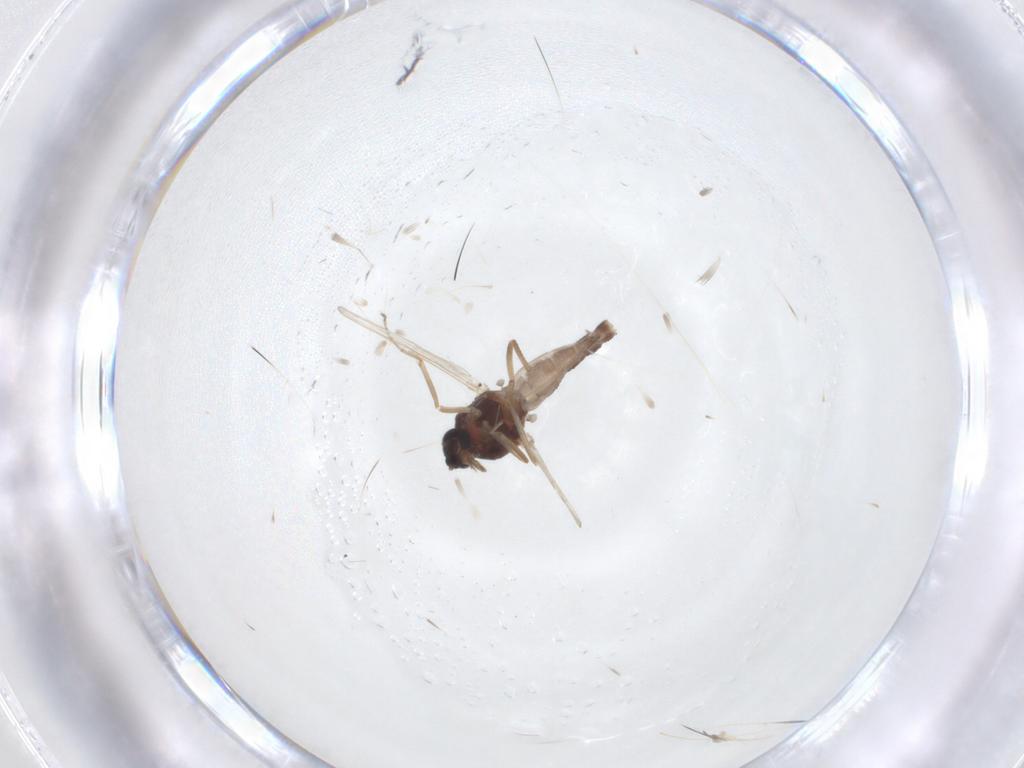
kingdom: Animalia
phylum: Arthropoda
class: Insecta
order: Diptera
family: Ceratopogonidae
